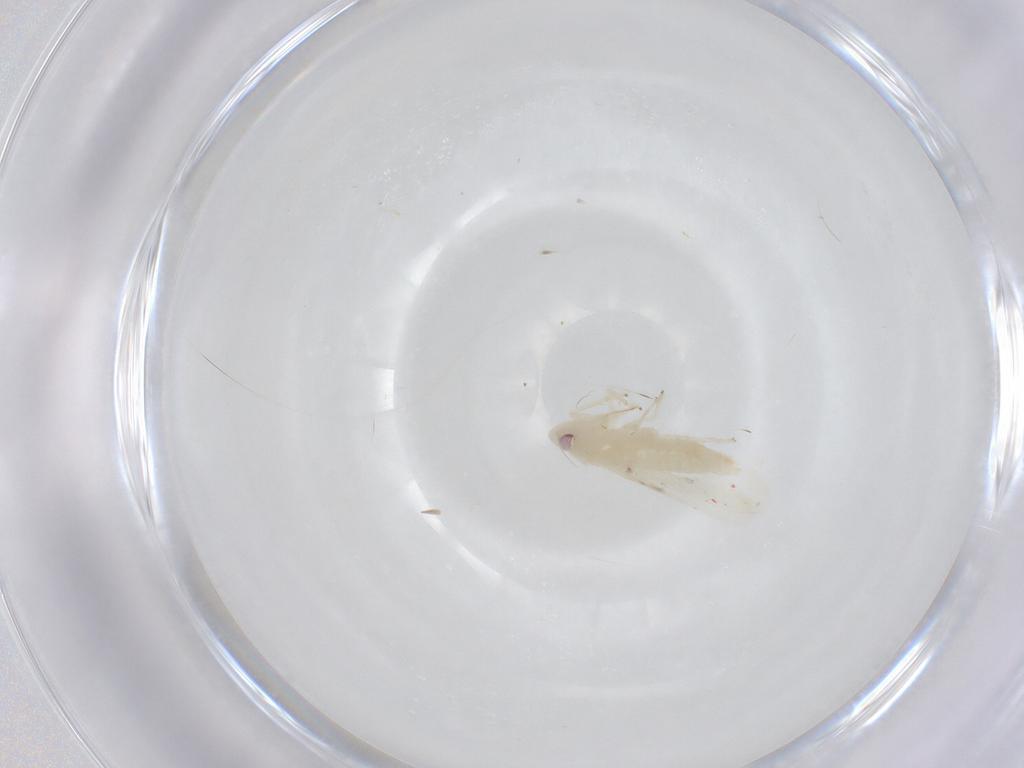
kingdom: Animalia
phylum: Arthropoda
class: Insecta
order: Hemiptera
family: Cicadellidae
